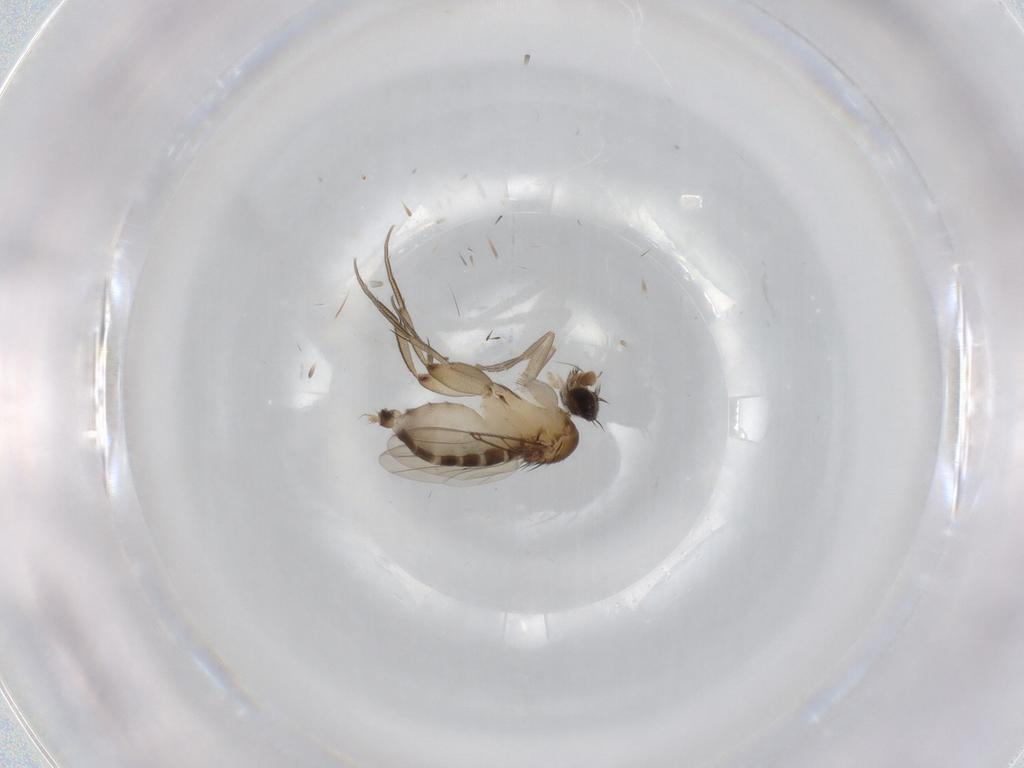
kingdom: Animalia
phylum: Arthropoda
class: Insecta
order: Diptera
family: Phoridae
